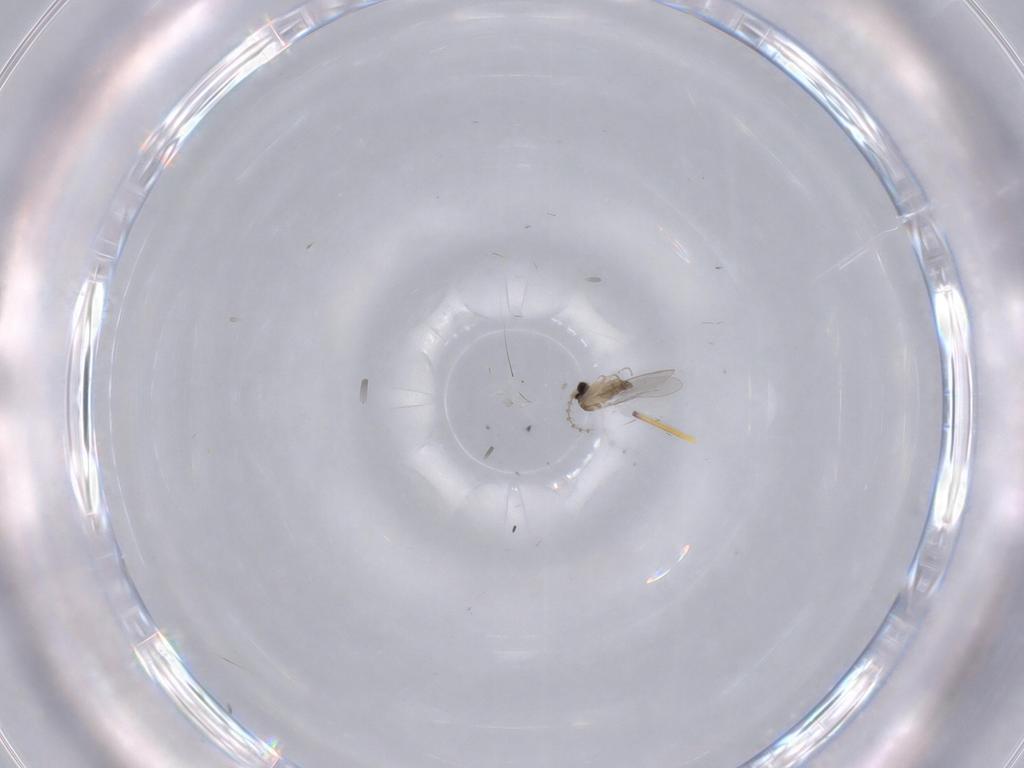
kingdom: Animalia
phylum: Arthropoda
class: Insecta
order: Diptera
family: Cecidomyiidae
